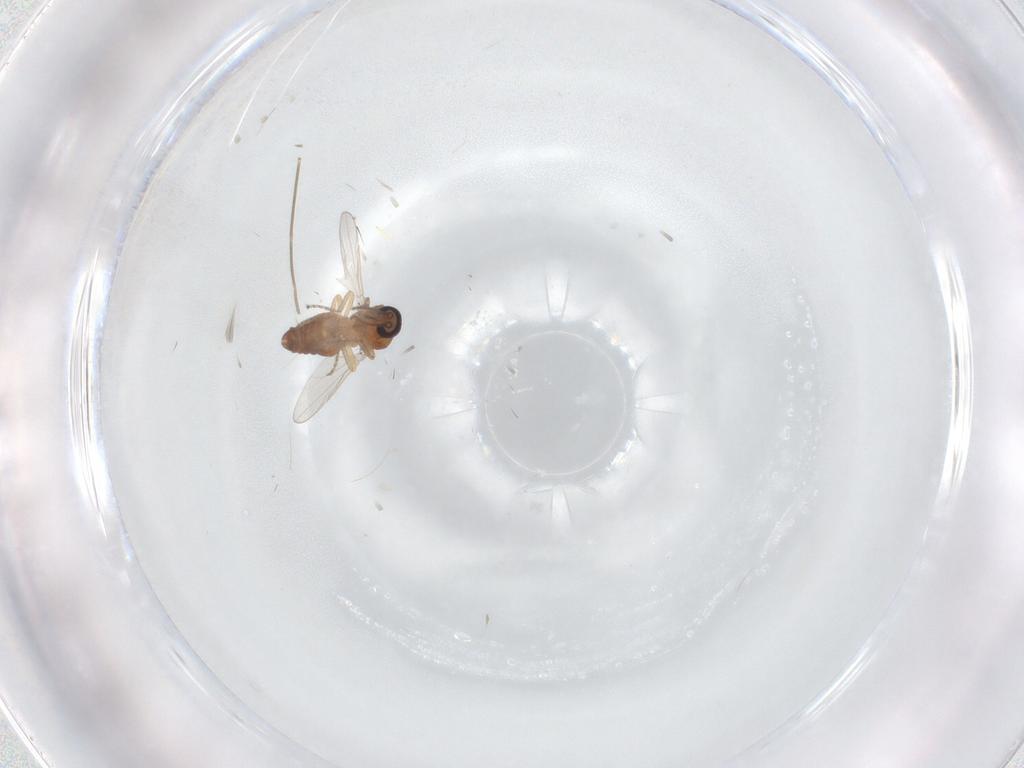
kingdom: Animalia
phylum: Arthropoda
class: Insecta
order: Diptera
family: Ceratopogonidae
